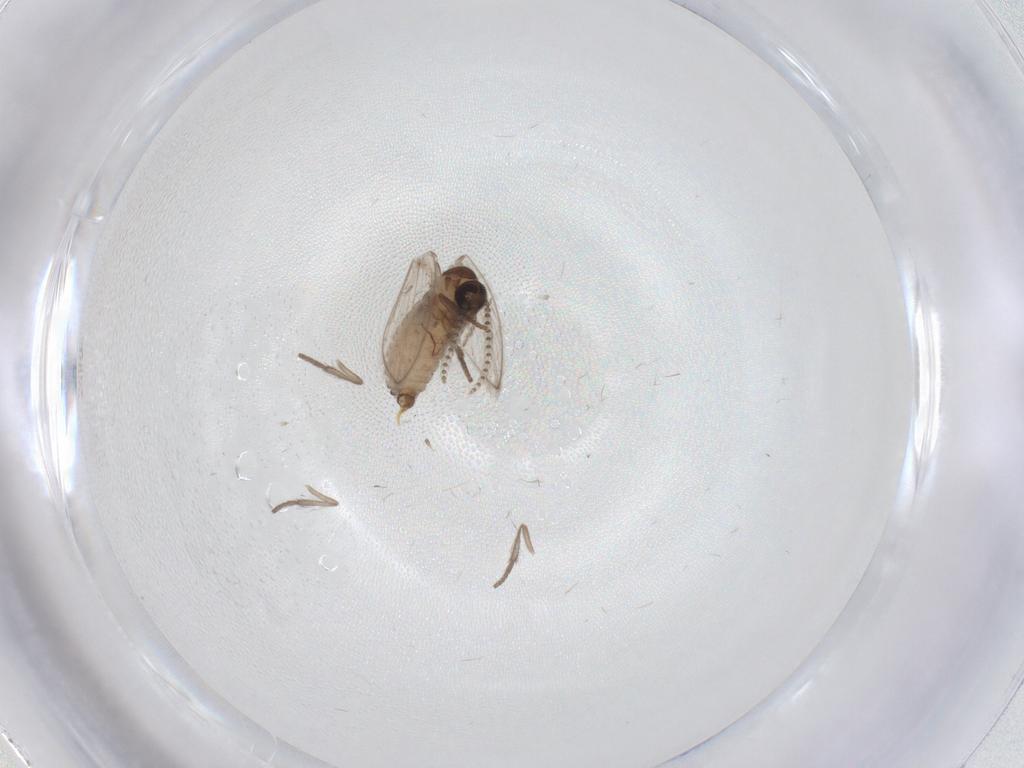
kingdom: Animalia
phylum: Arthropoda
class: Insecta
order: Diptera
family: Psychodidae
